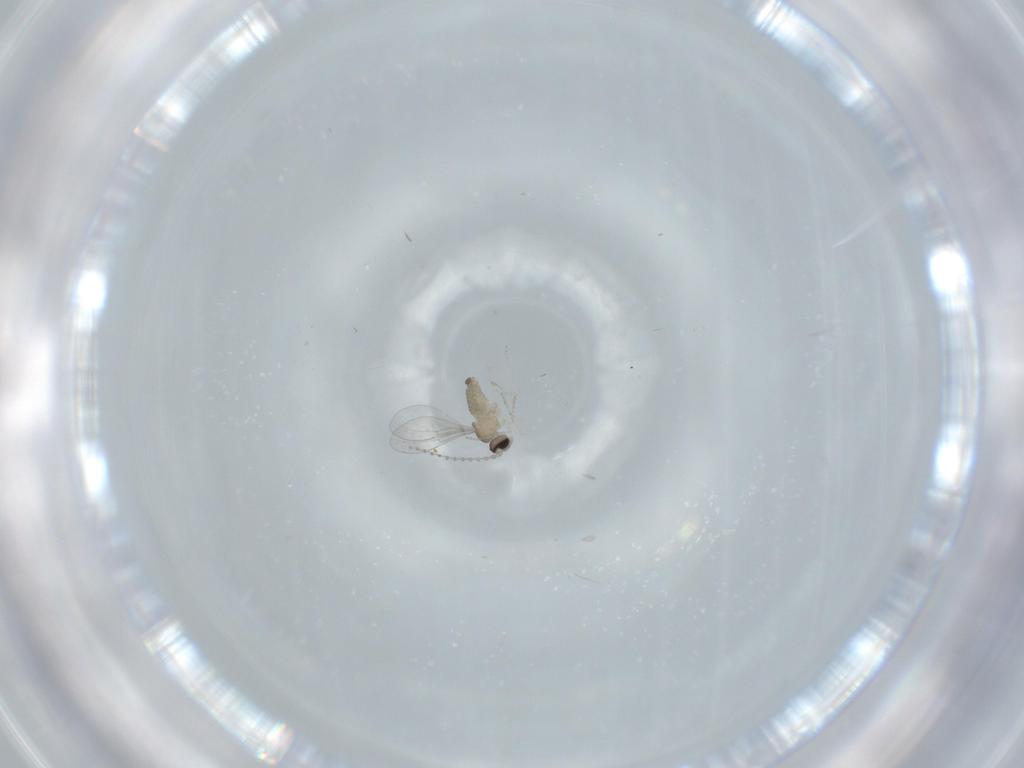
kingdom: Animalia
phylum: Arthropoda
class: Insecta
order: Diptera
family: Cecidomyiidae
